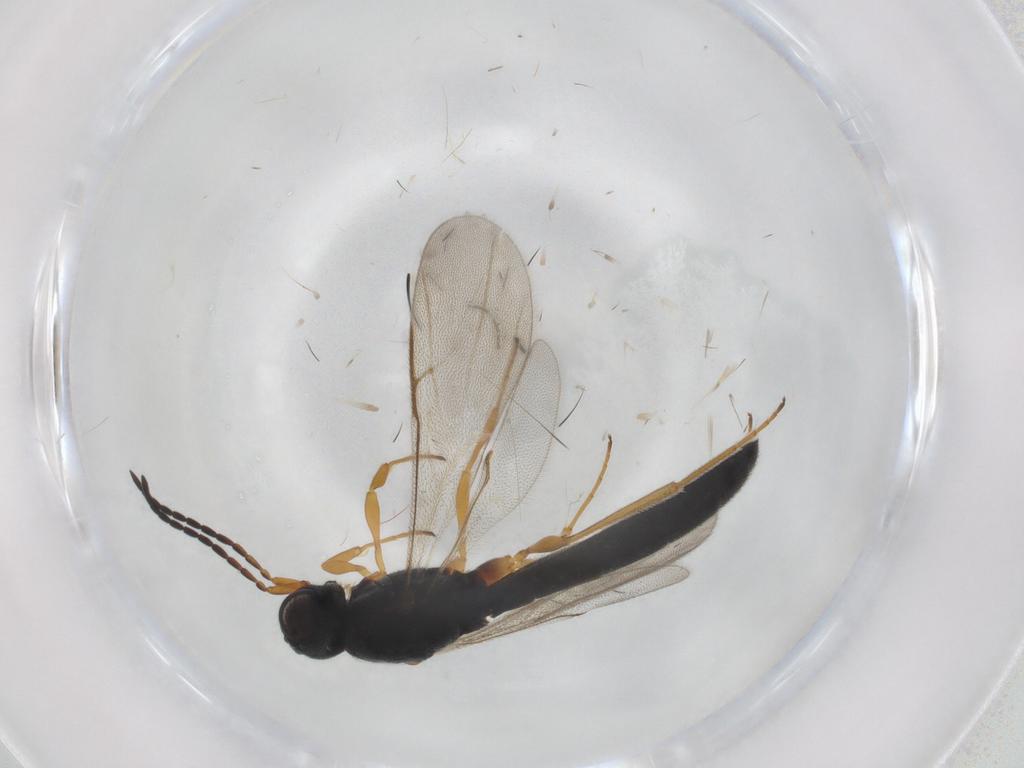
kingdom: Animalia
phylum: Arthropoda
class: Insecta
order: Hymenoptera
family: Scelionidae
